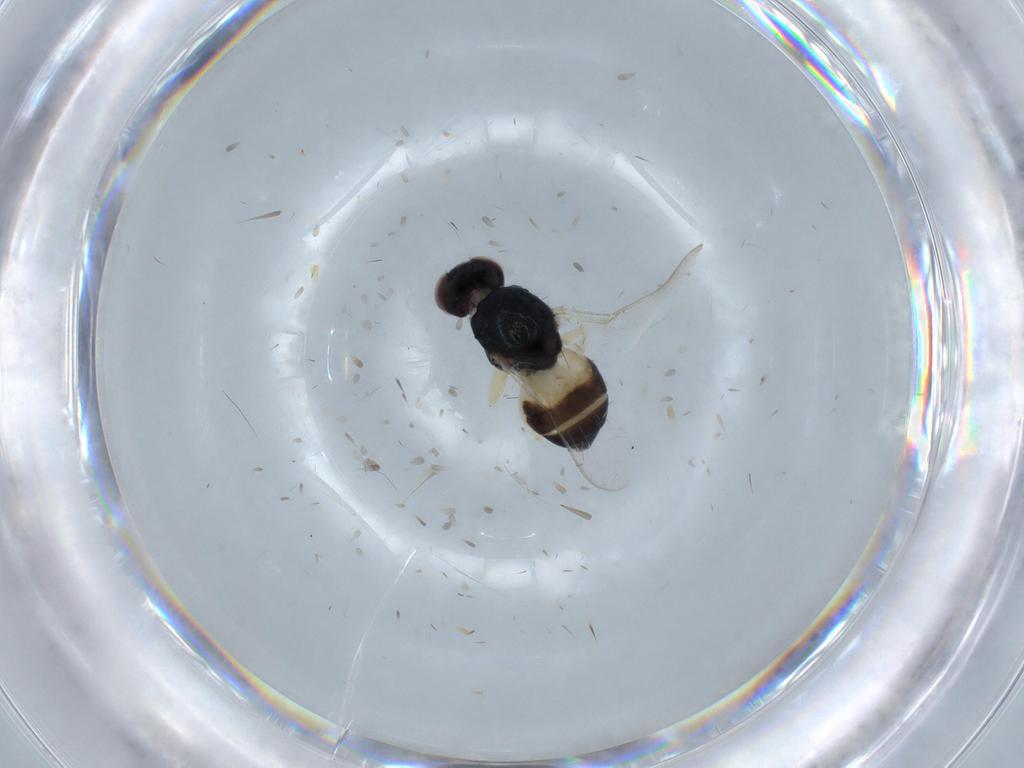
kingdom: Animalia
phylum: Arthropoda
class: Insecta
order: Diptera
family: Chloropidae
